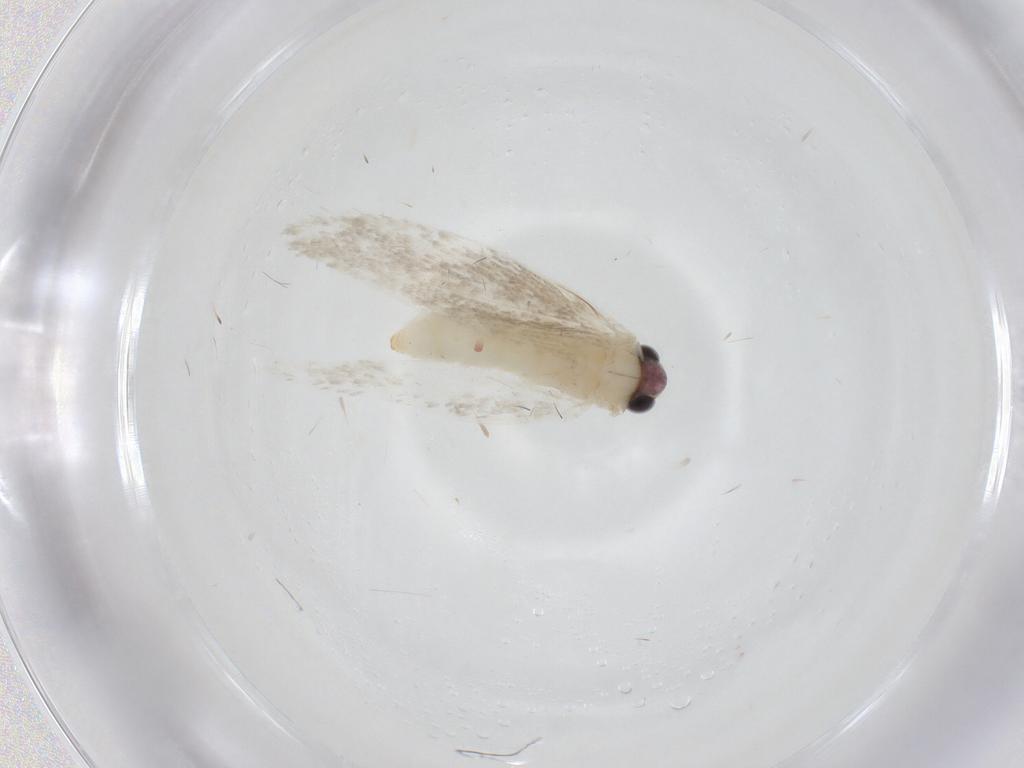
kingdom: Animalia
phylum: Arthropoda
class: Insecta
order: Lepidoptera
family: Tineidae
